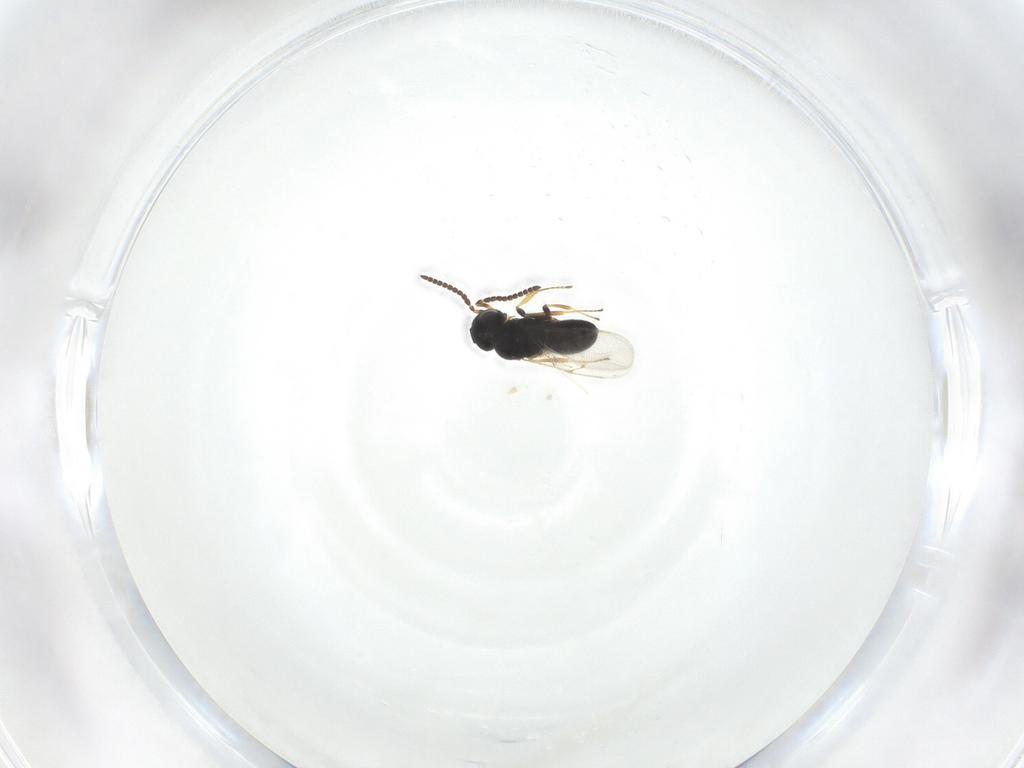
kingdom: Animalia
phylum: Arthropoda
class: Insecta
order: Hymenoptera
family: Scelionidae
